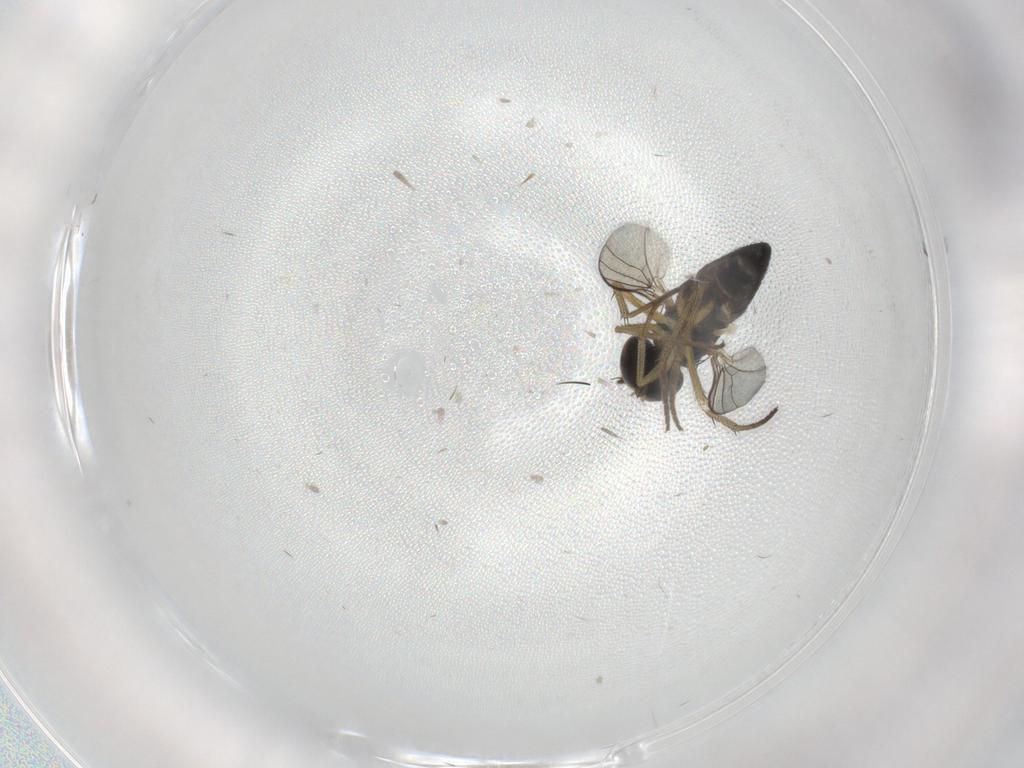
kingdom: Animalia
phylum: Arthropoda
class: Insecta
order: Diptera
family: Dolichopodidae
